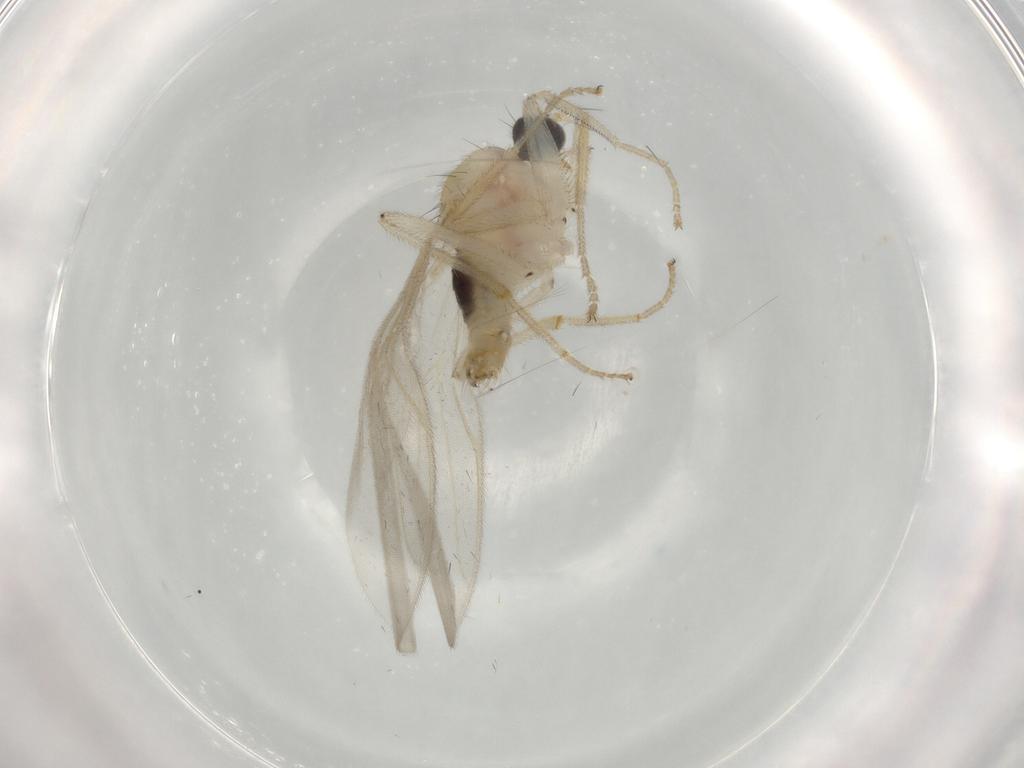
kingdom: Animalia
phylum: Arthropoda
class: Insecta
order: Diptera
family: Hybotidae
